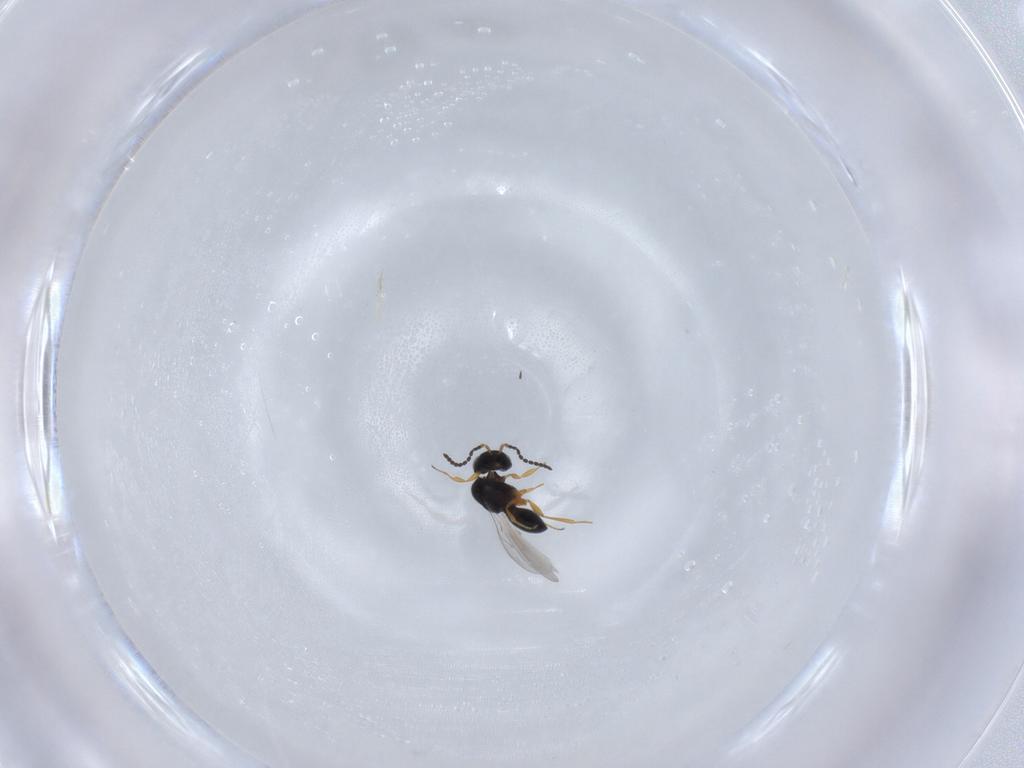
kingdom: Animalia
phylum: Arthropoda
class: Insecta
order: Hymenoptera
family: Scelionidae
